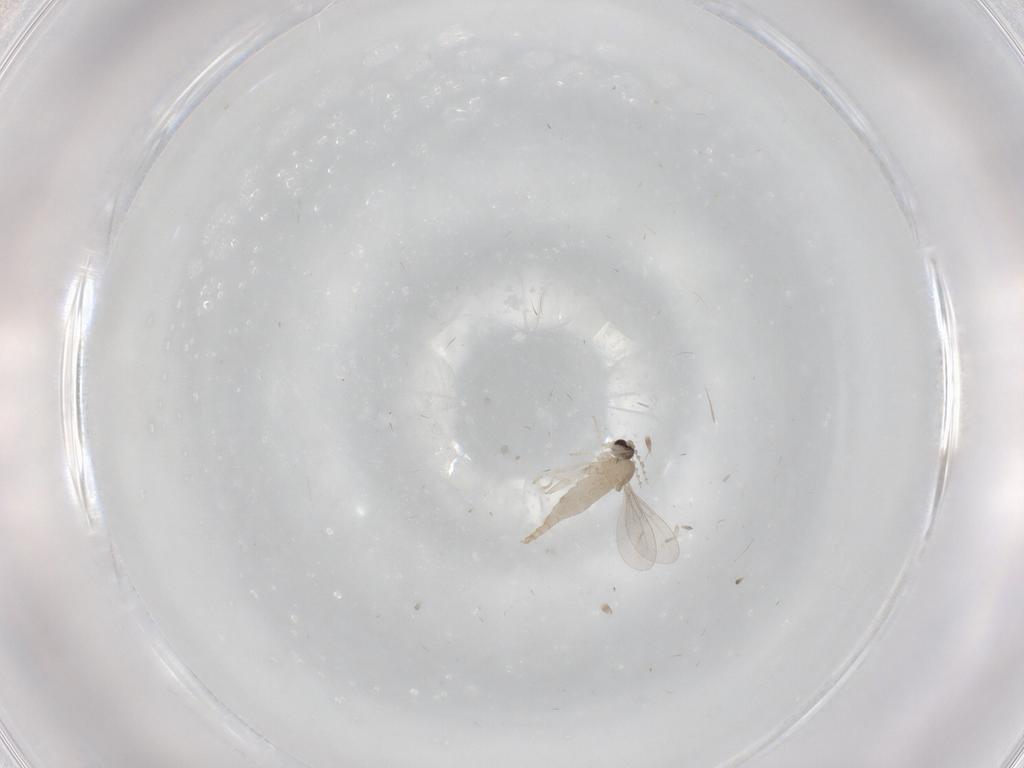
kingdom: Animalia
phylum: Arthropoda
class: Insecta
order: Diptera
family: Cecidomyiidae
